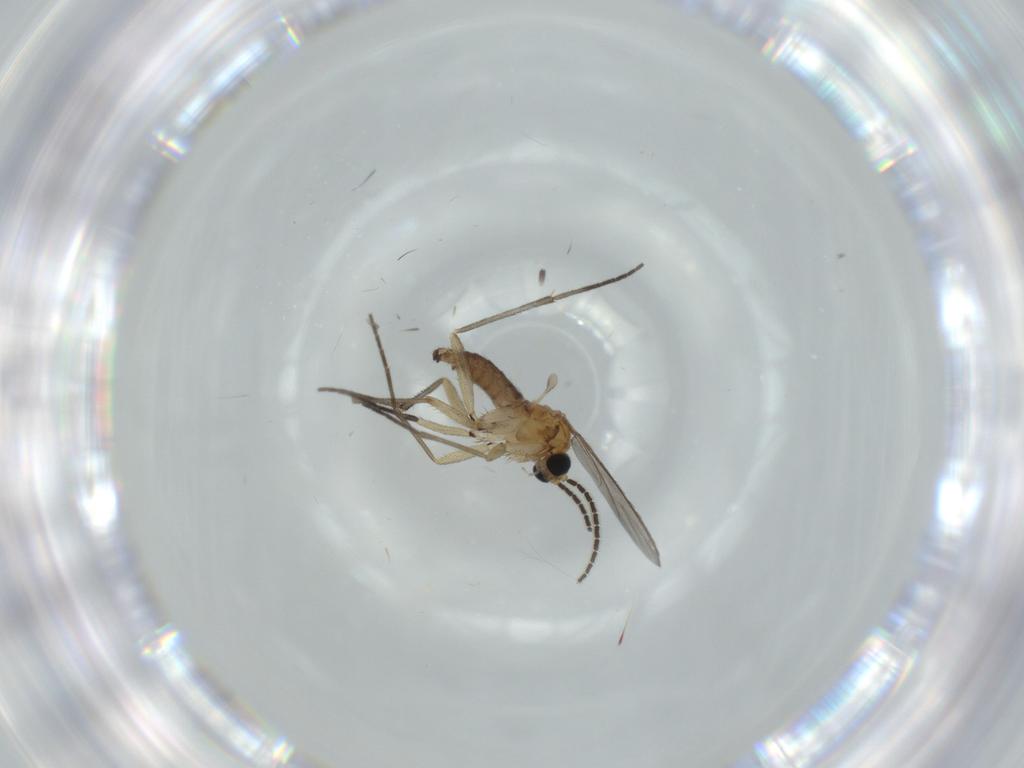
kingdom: Animalia
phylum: Arthropoda
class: Insecta
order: Diptera
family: Sciaridae
